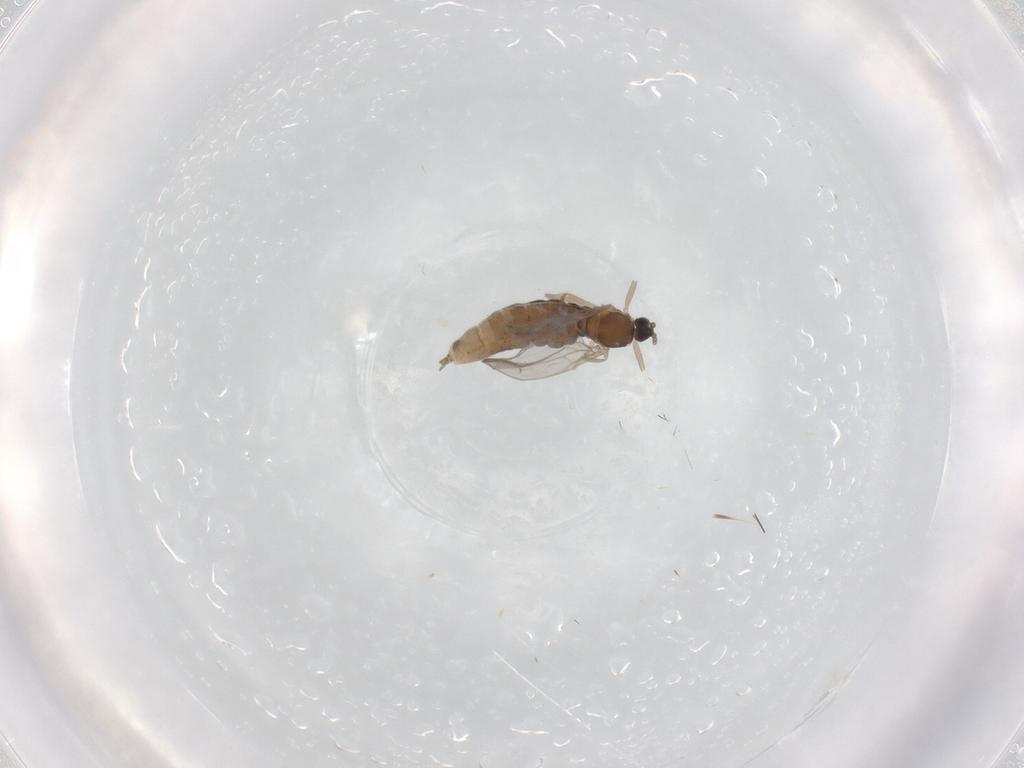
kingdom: Animalia
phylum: Arthropoda
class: Insecta
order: Diptera
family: Cecidomyiidae
